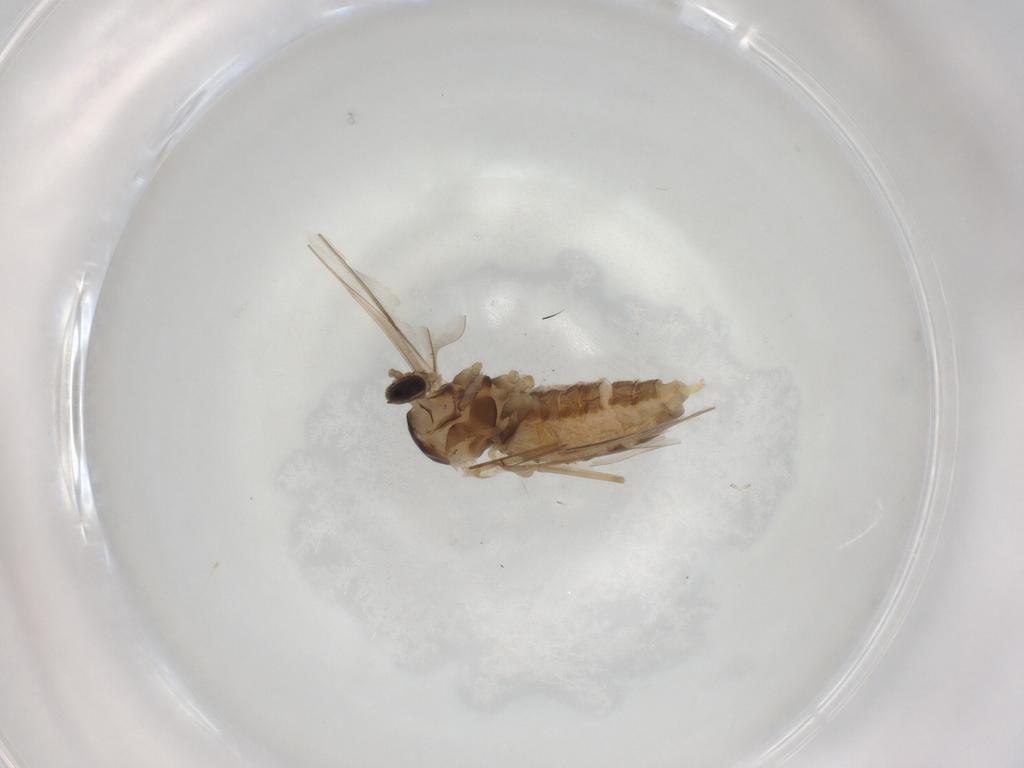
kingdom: Animalia
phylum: Arthropoda
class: Insecta
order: Diptera
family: Cecidomyiidae
